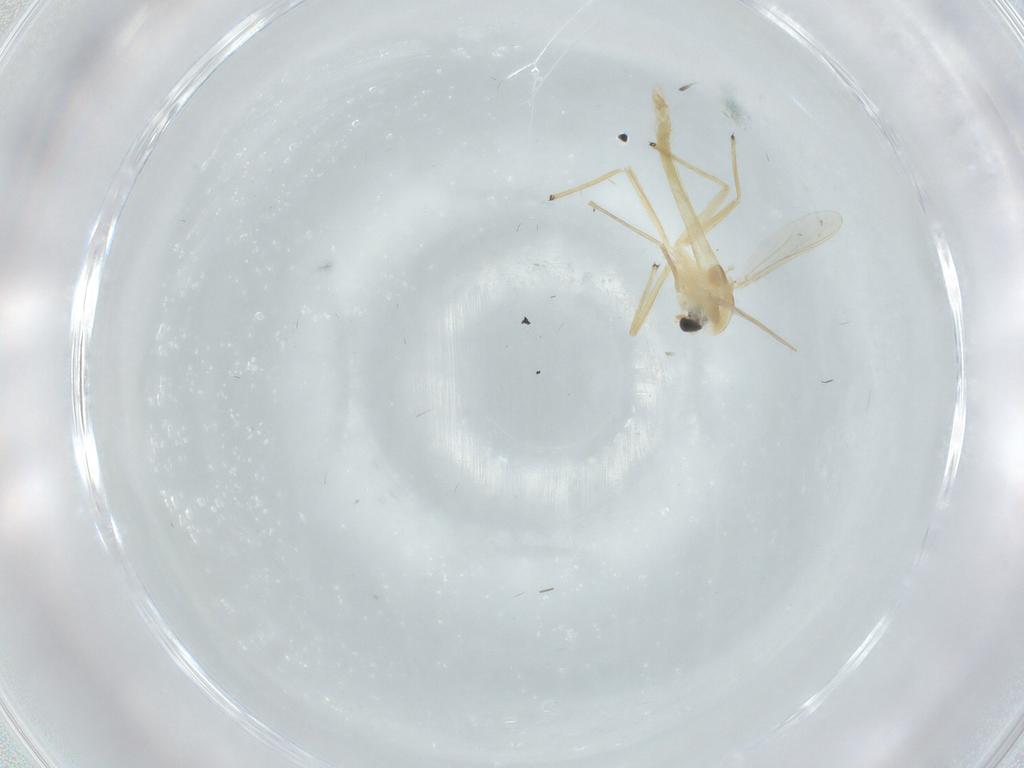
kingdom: Animalia
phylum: Arthropoda
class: Insecta
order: Diptera
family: Chironomidae
